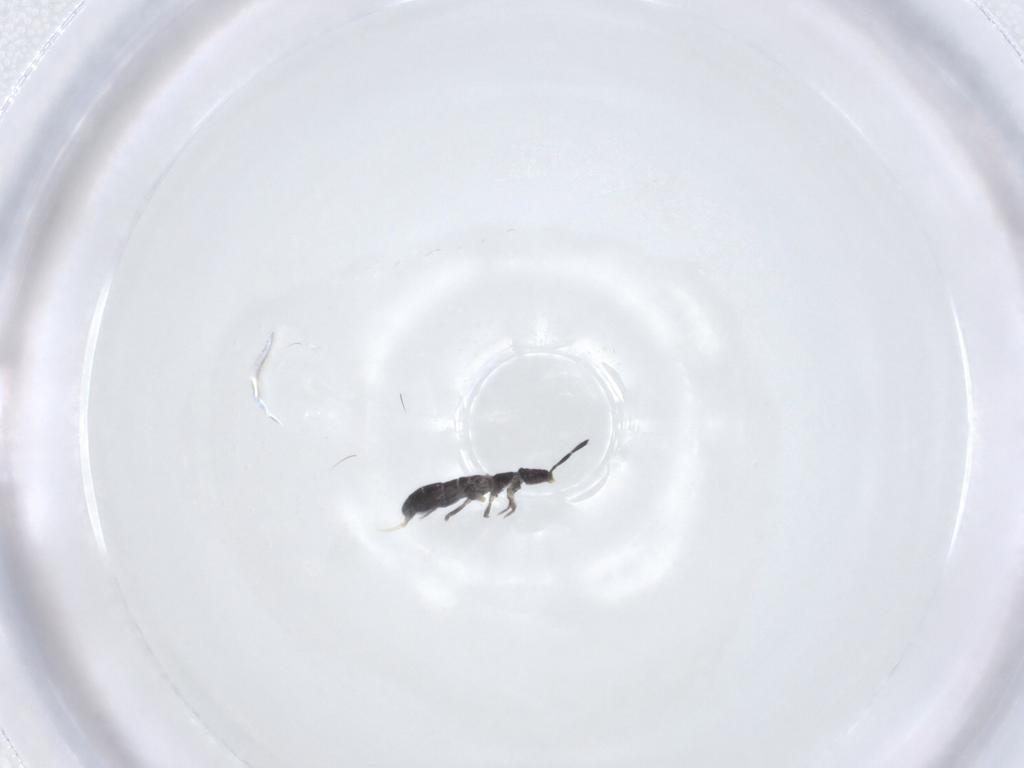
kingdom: Animalia
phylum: Arthropoda
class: Collembola
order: Entomobryomorpha
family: Isotomidae
